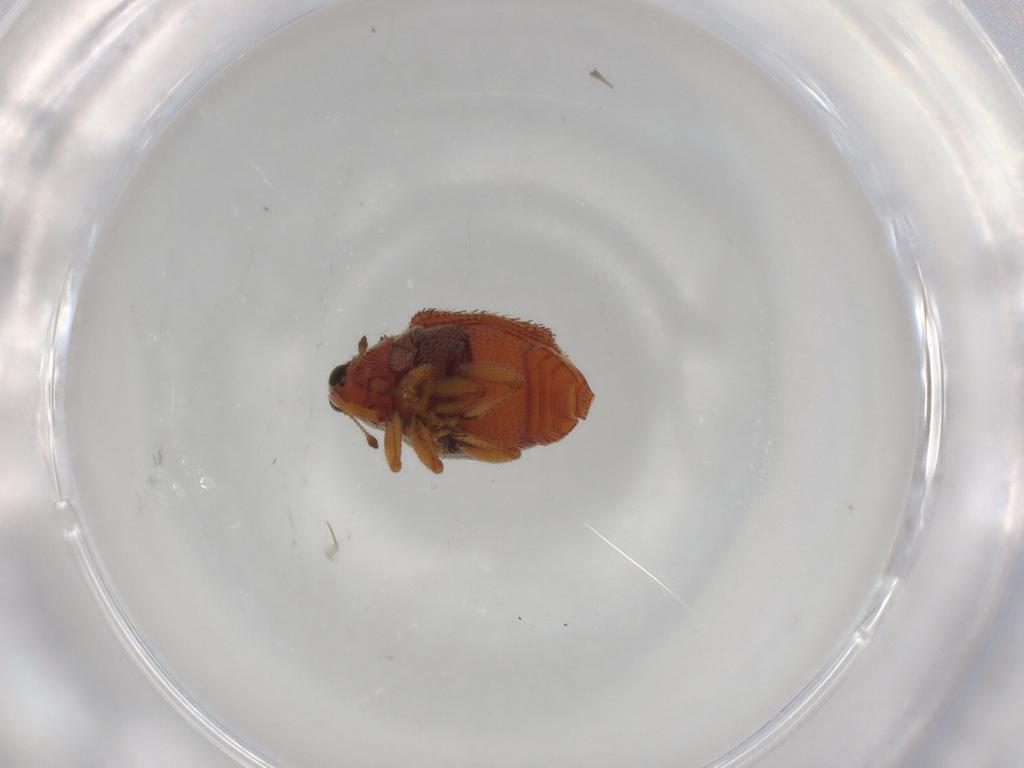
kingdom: Animalia
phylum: Arthropoda
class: Insecta
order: Coleoptera
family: Curculionidae
